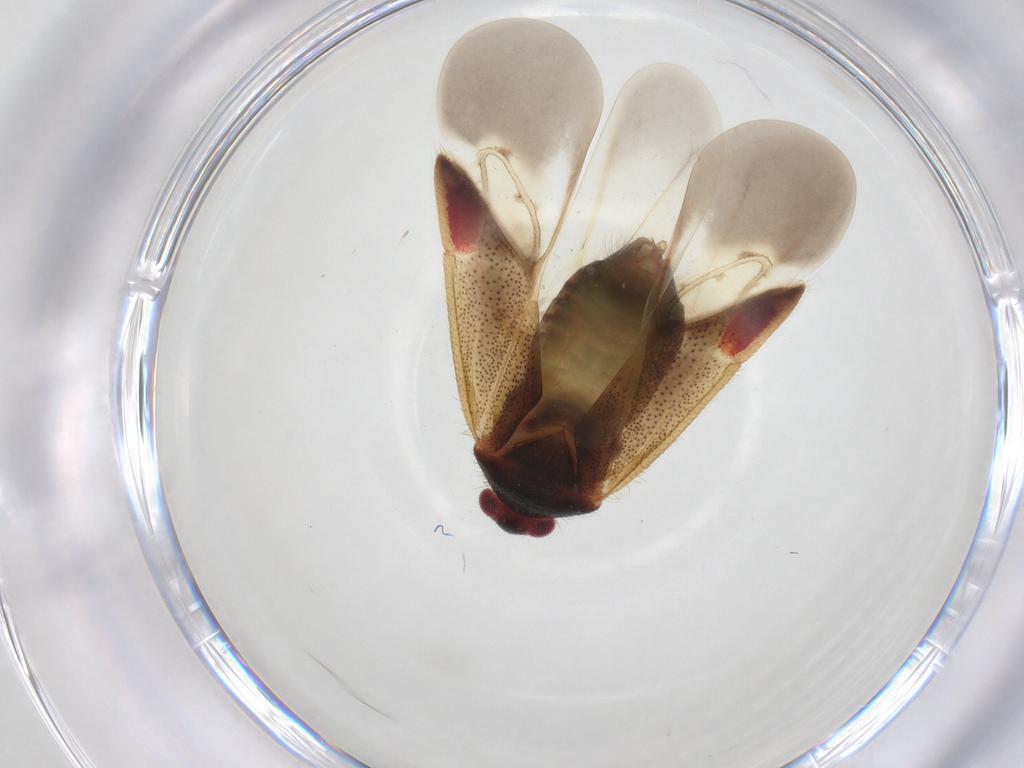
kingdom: Animalia
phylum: Arthropoda
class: Insecta
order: Hemiptera
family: Miridae
